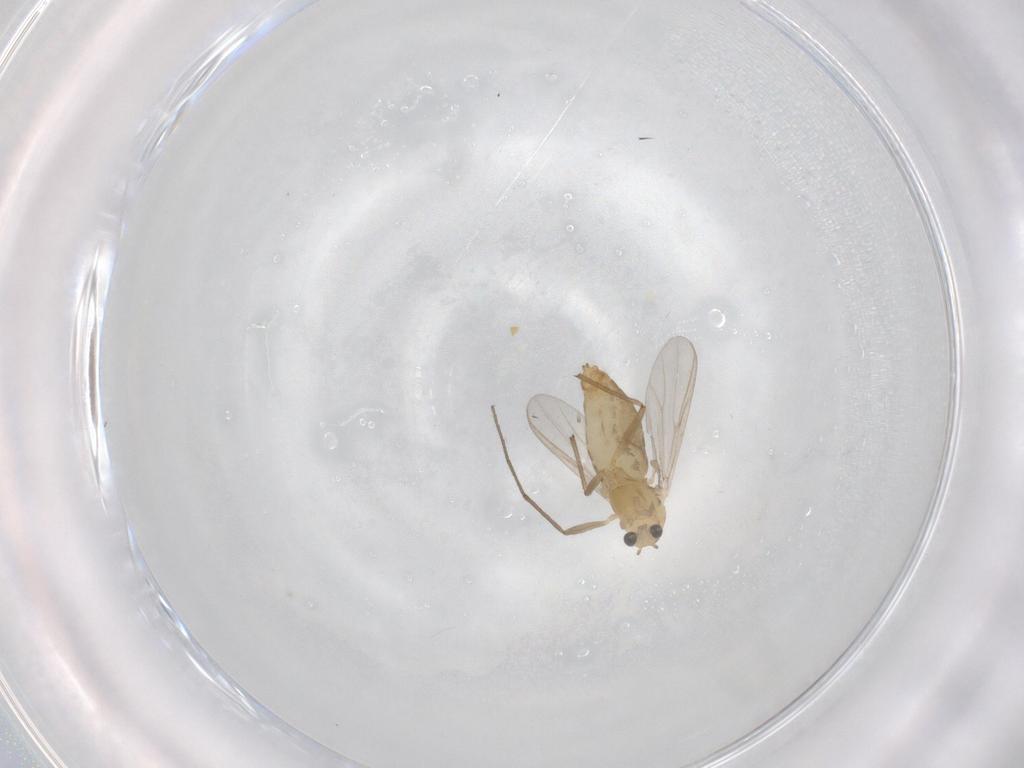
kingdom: Animalia
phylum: Arthropoda
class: Insecta
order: Diptera
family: Chironomidae
